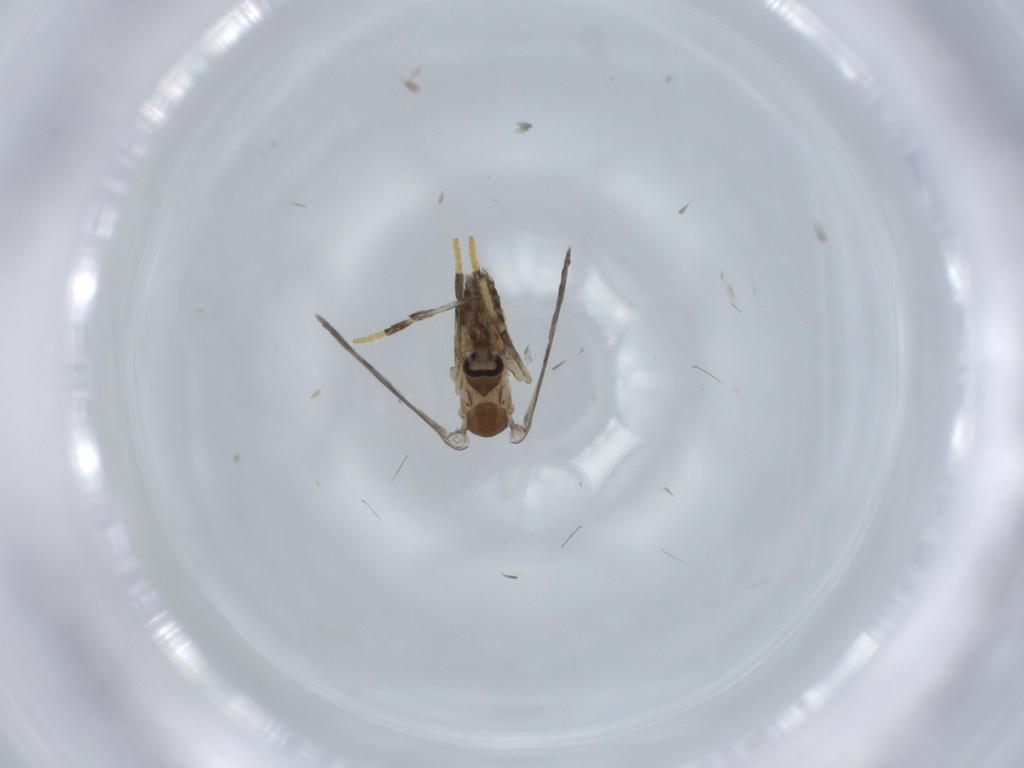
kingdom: Animalia
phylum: Arthropoda
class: Insecta
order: Diptera
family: Psychodidae
